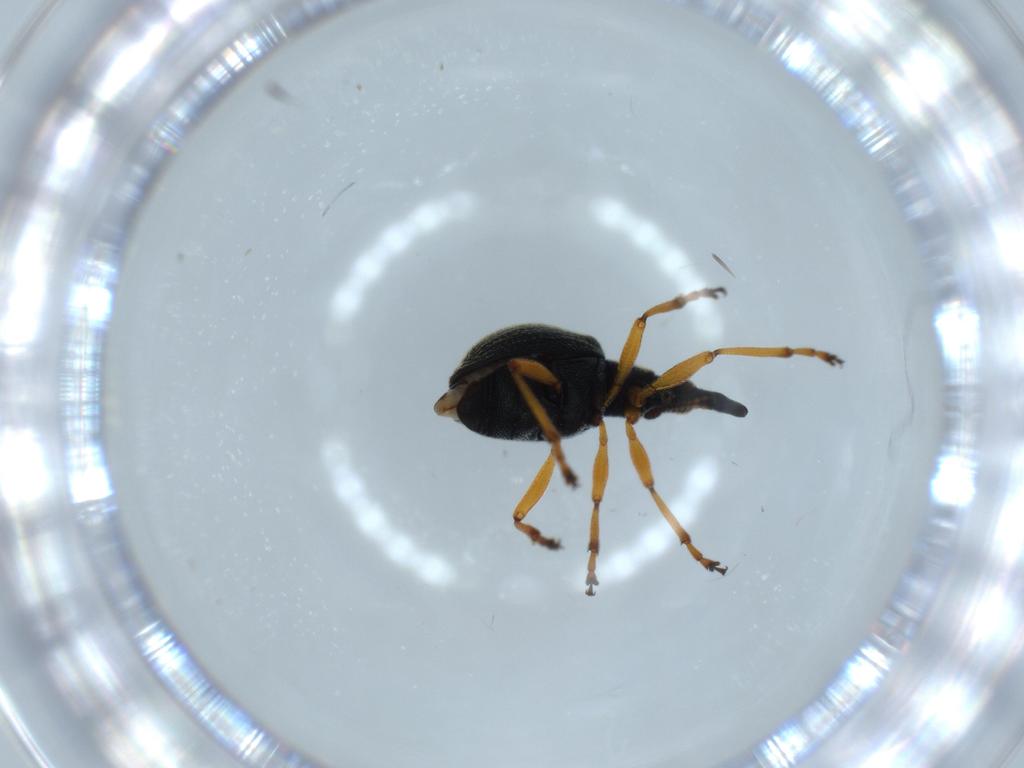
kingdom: Animalia
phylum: Arthropoda
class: Insecta
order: Coleoptera
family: Brentidae
